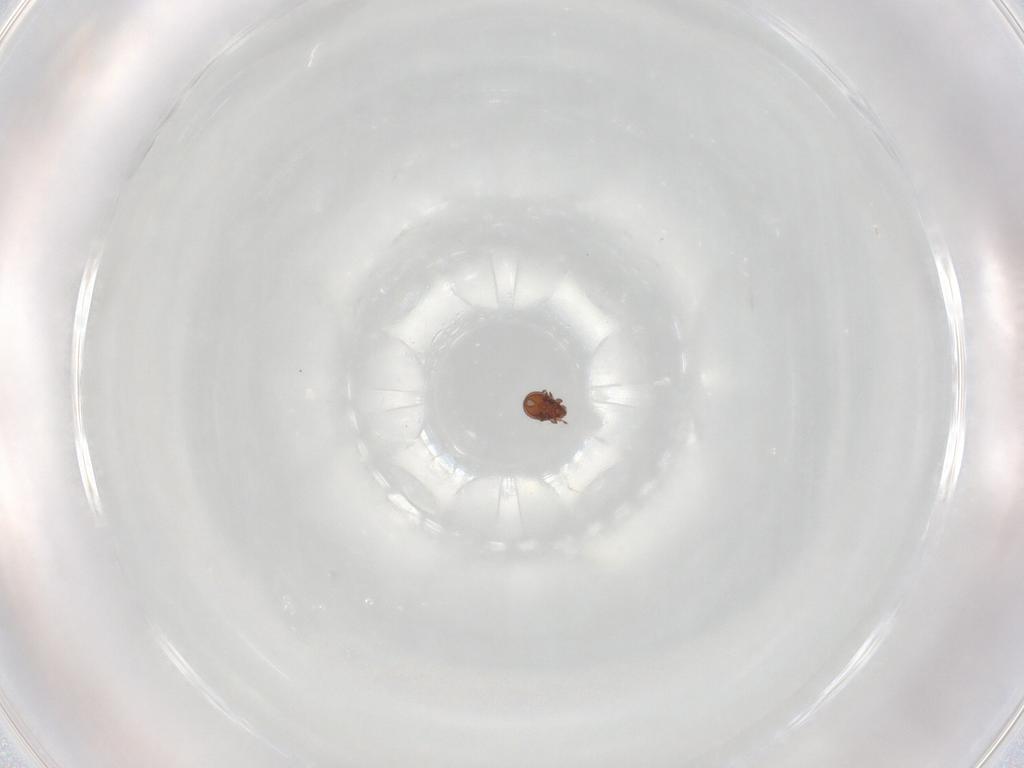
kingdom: Animalia
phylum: Arthropoda
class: Arachnida
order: Sarcoptiformes
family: Tectocepheidae
